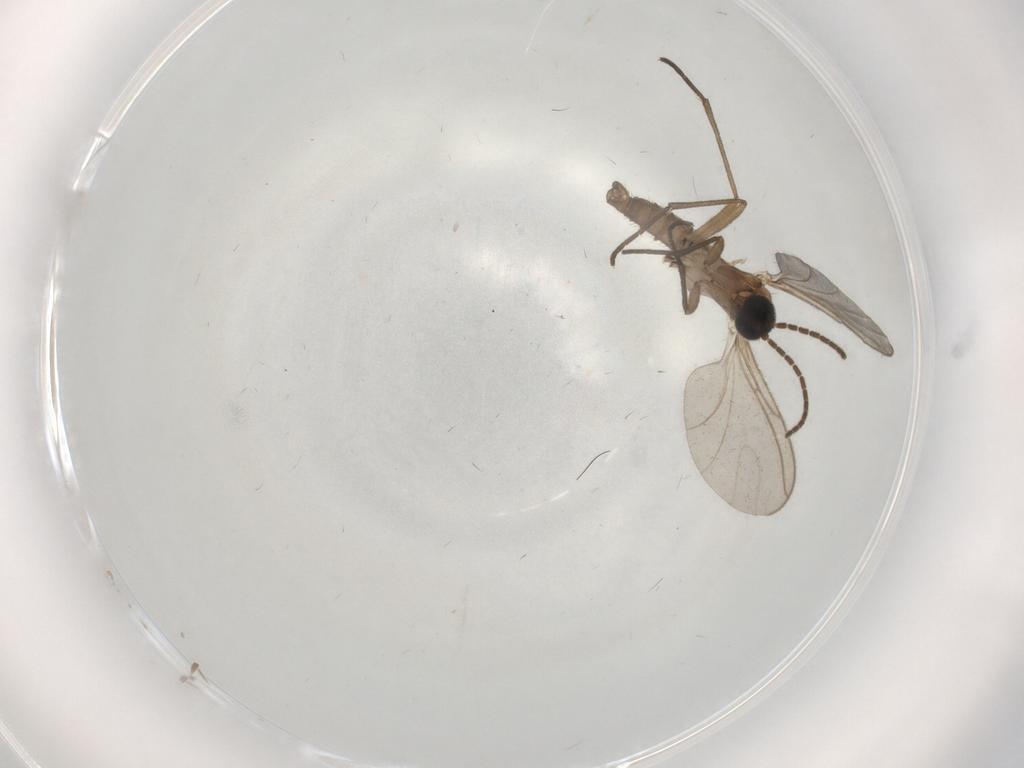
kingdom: Animalia
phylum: Arthropoda
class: Insecta
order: Diptera
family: Sciaridae
